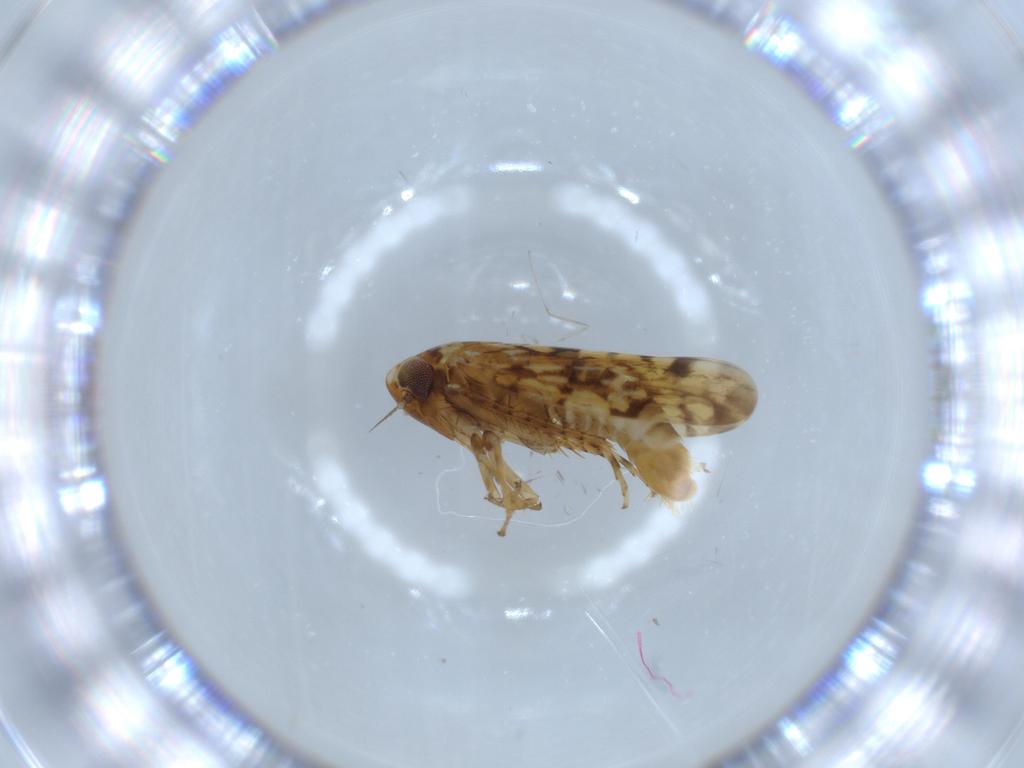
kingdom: Animalia
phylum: Arthropoda
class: Insecta
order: Hemiptera
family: Cicadellidae
